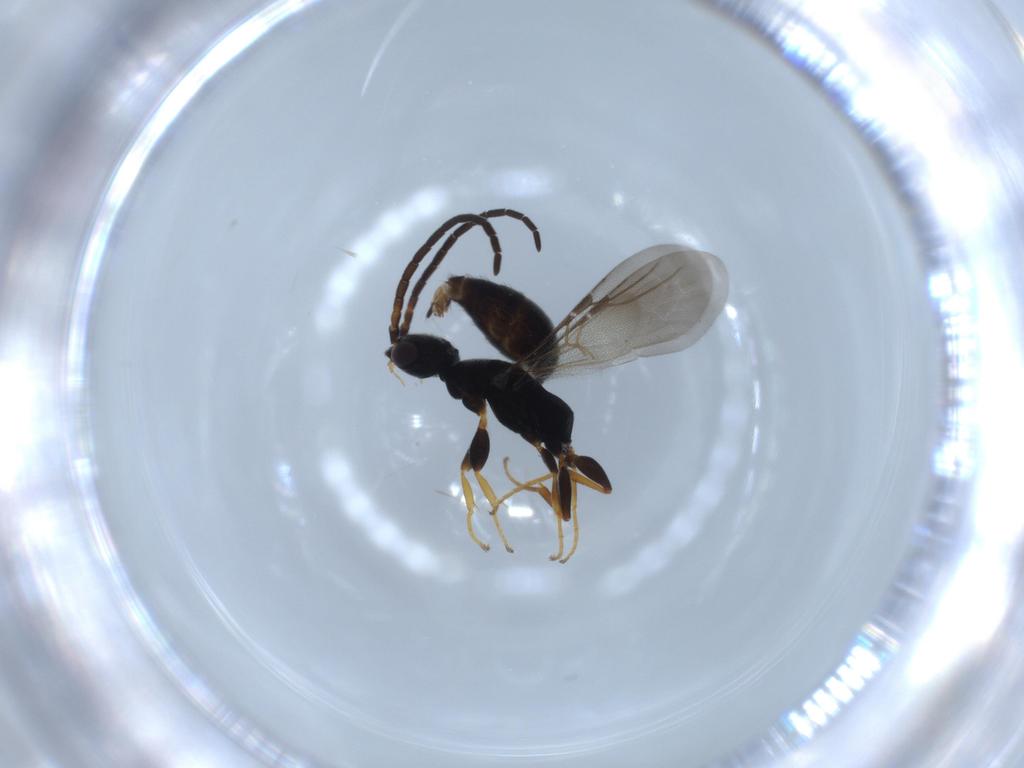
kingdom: Animalia
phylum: Arthropoda
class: Insecta
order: Hymenoptera
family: Bethylidae
